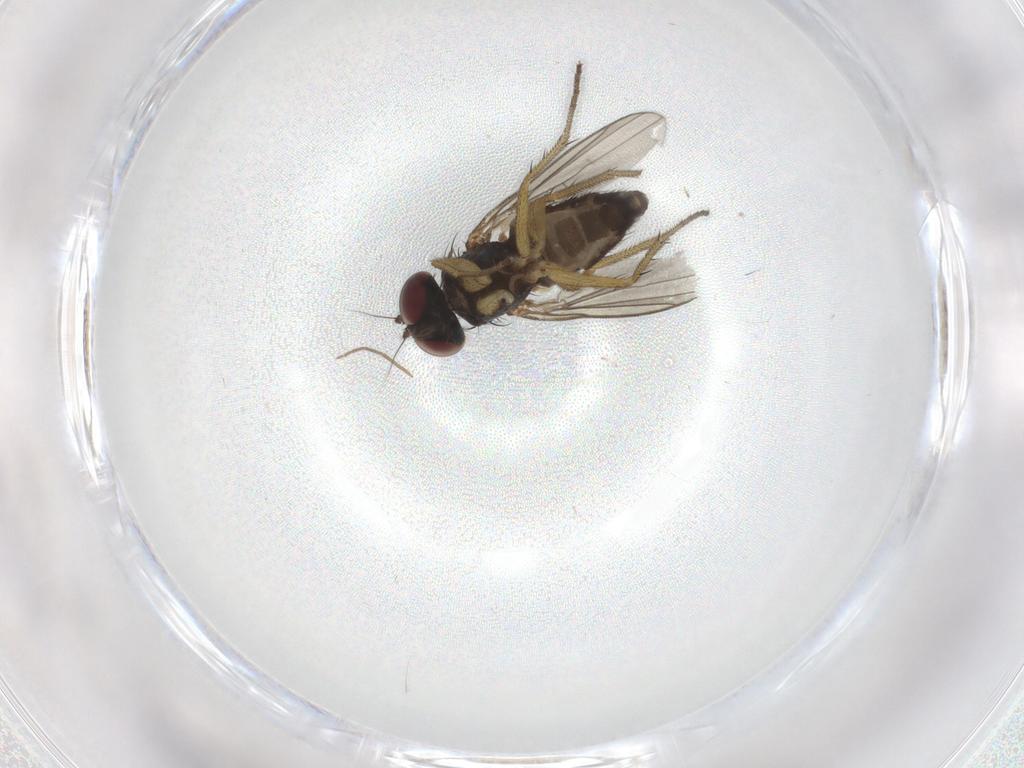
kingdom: Animalia
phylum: Arthropoda
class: Insecta
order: Diptera
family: Dolichopodidae
